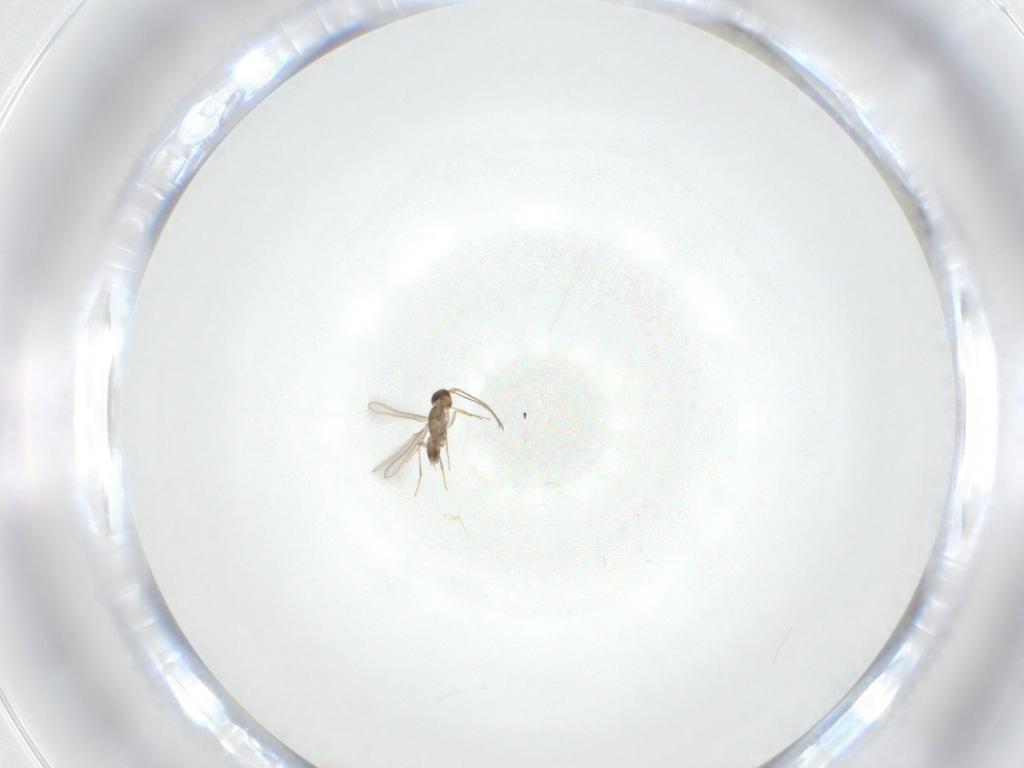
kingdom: Animalia
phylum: Arthropoda
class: Insecta
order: Hymenoptera
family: Mymaridae
